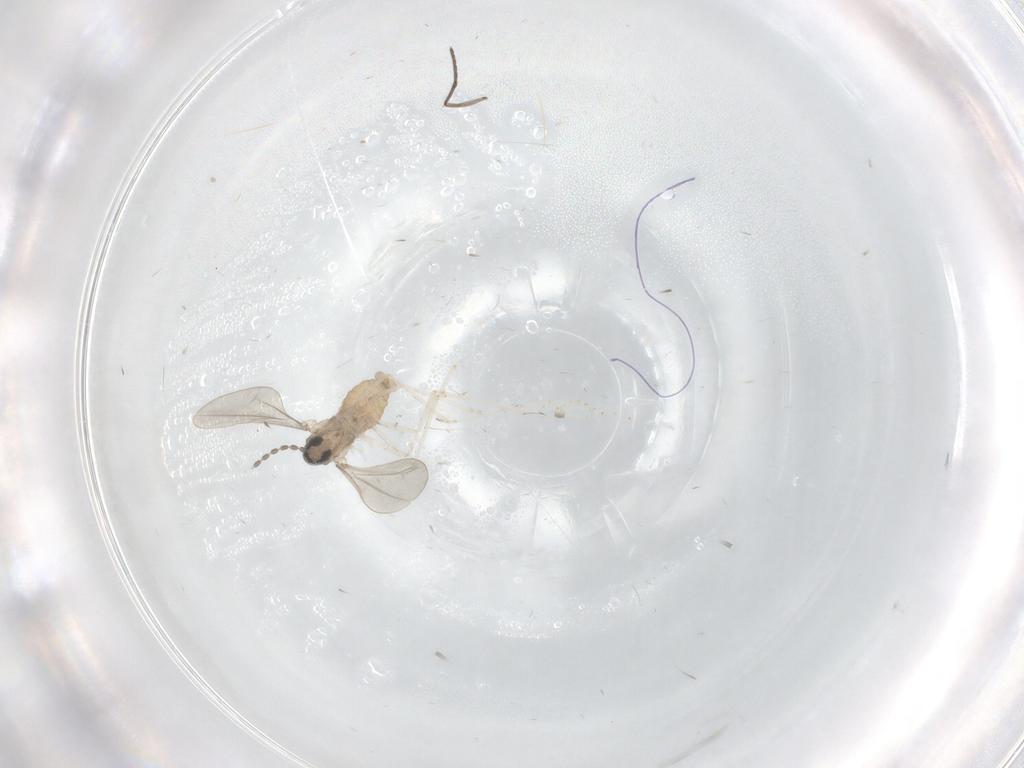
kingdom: Animalia
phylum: Arthropoda
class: Insecta
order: Diptera
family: Cecidomyiidae
